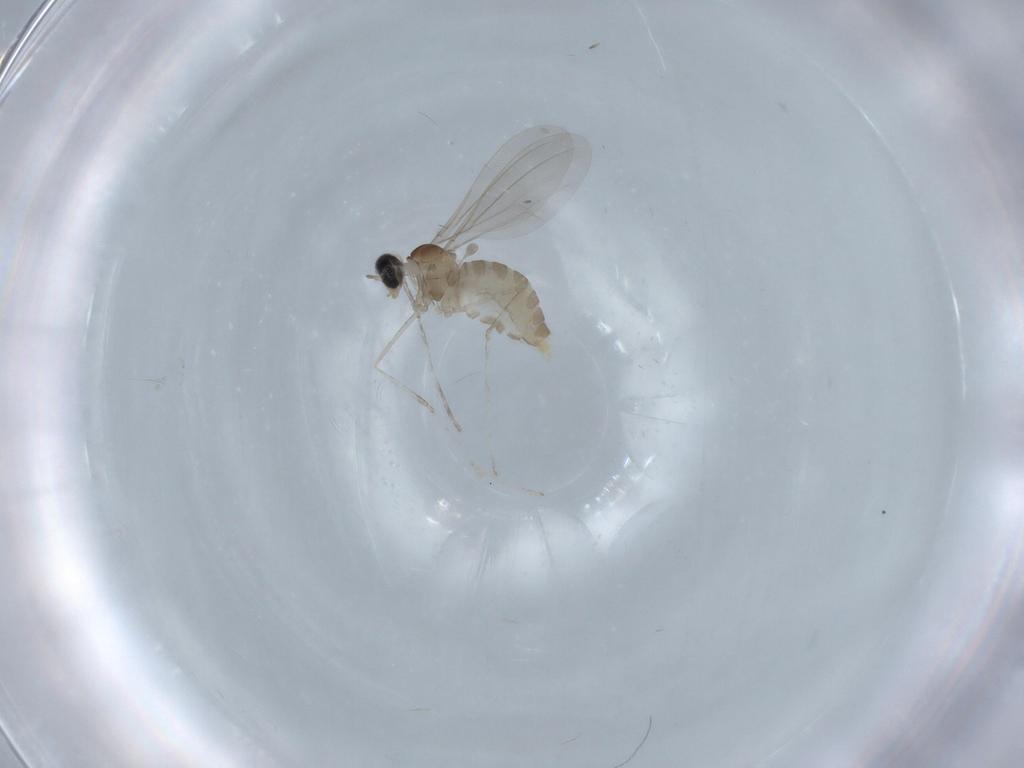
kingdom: Animalia
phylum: Arthropoda
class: Insecta
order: Diptera
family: Cecidomyiidae
